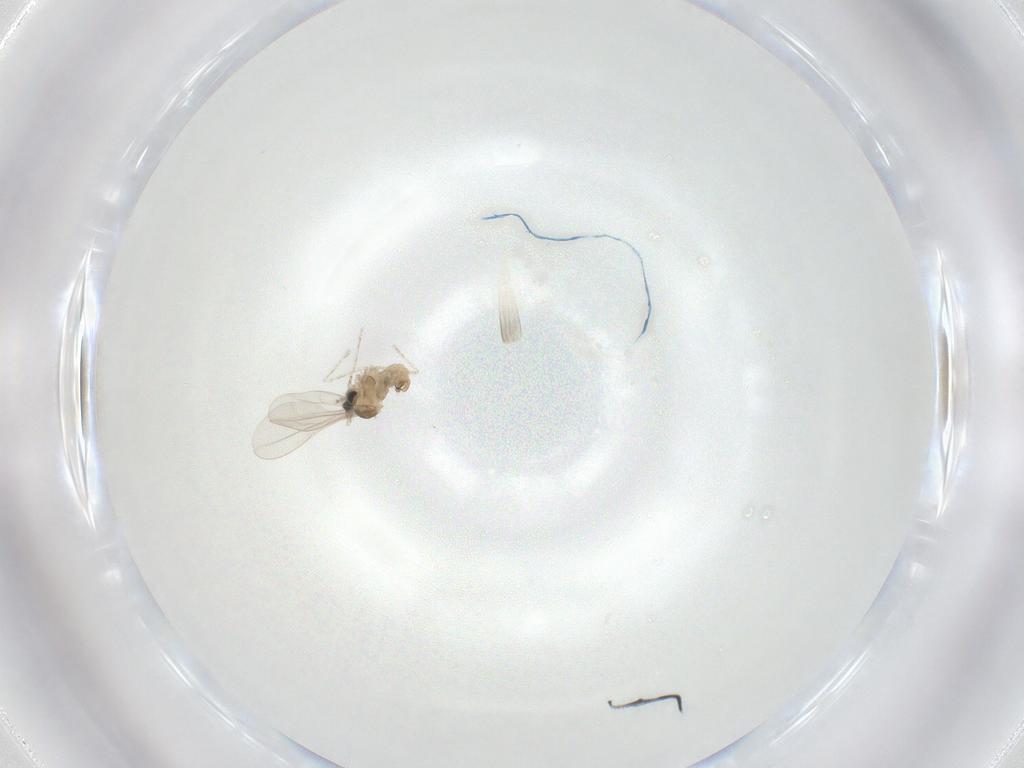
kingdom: Animalia
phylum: Arthropoda
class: Insecta
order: Diptera
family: Cecidomyiidae
